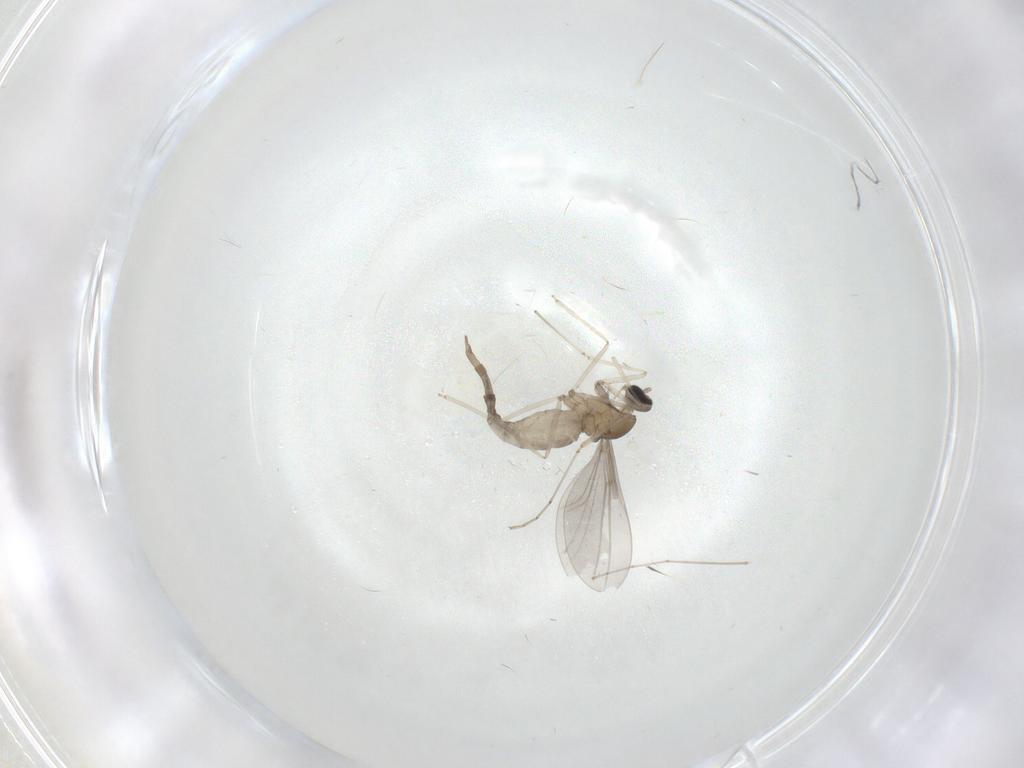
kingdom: Animalia
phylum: Arthropoda
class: Insecta
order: Diptera
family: Cecidomyiidae
